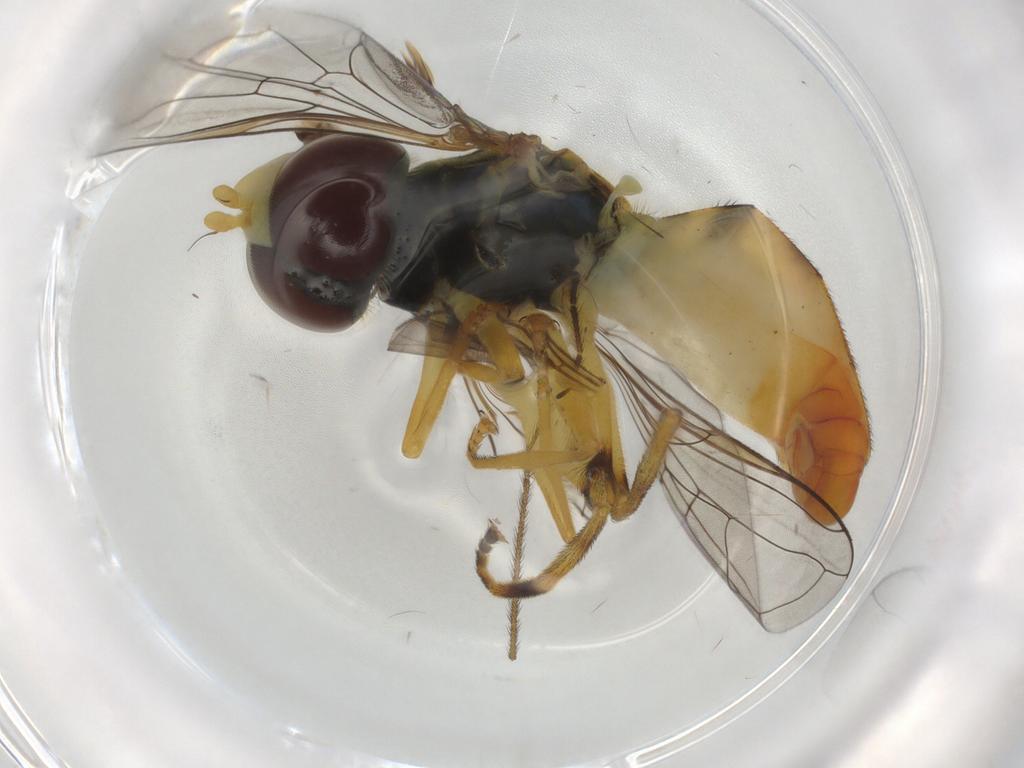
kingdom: Animalia
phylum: Arthropoda
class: Insecta
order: Diptera
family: Syrphidae
